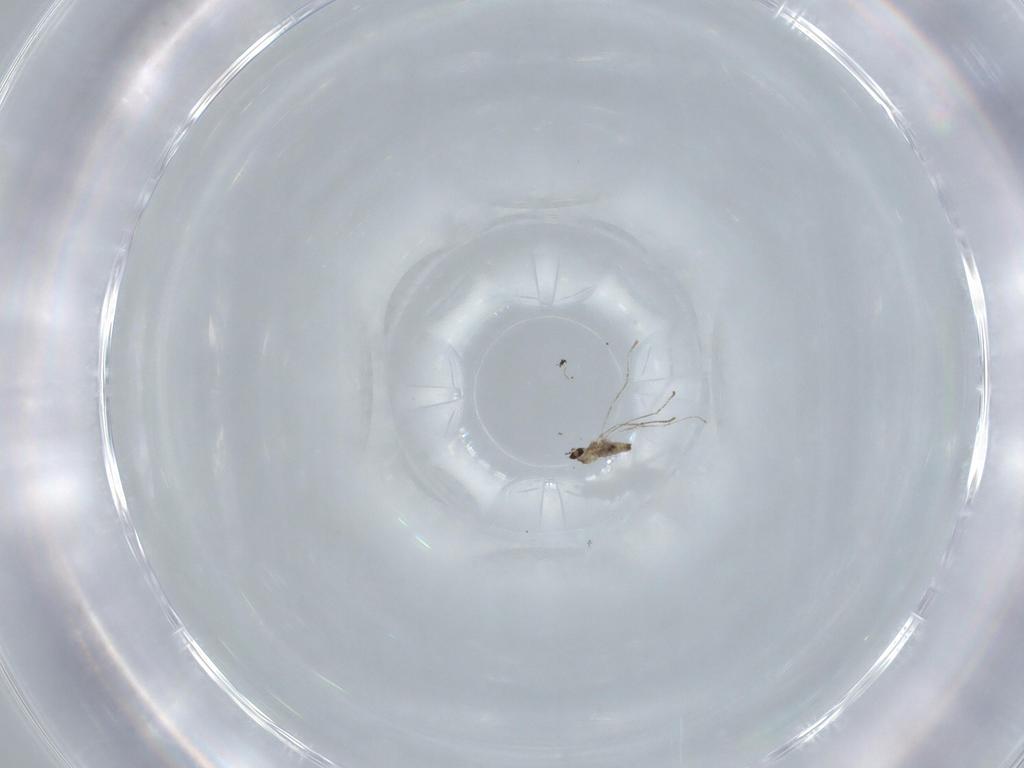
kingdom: Animalia
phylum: Arthropoda
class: Insecta
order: Diptera
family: Cecidomyiidae
